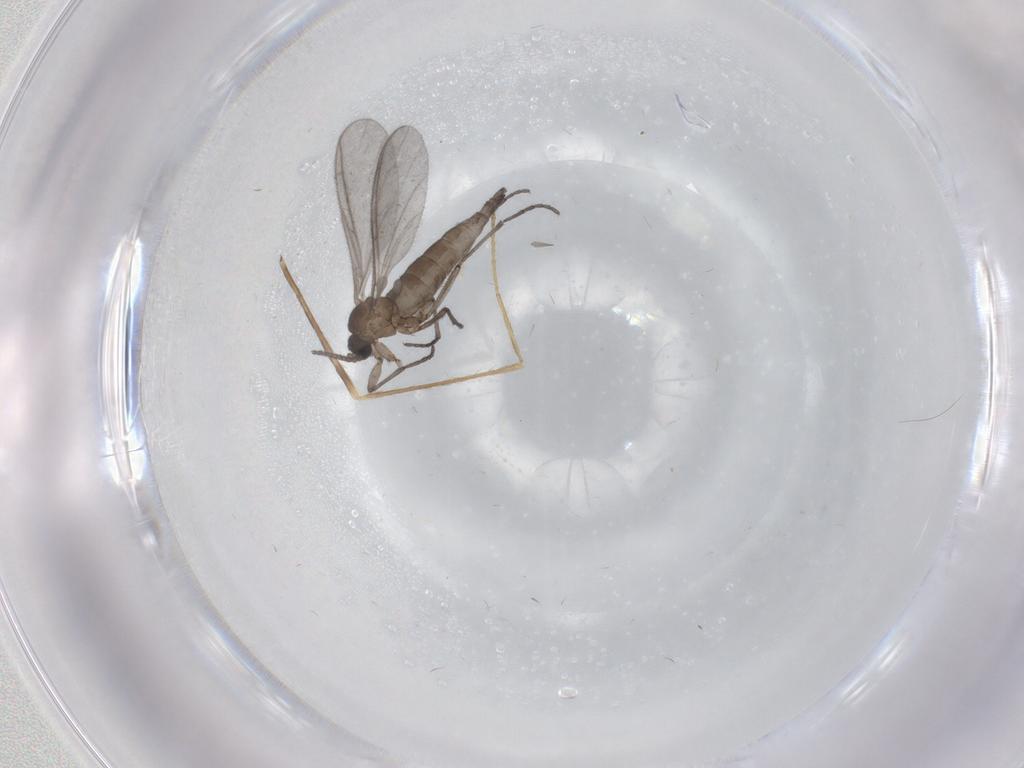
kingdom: Animalia
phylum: Arthropoda
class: Insecta
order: Diptera
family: Sciaridae
